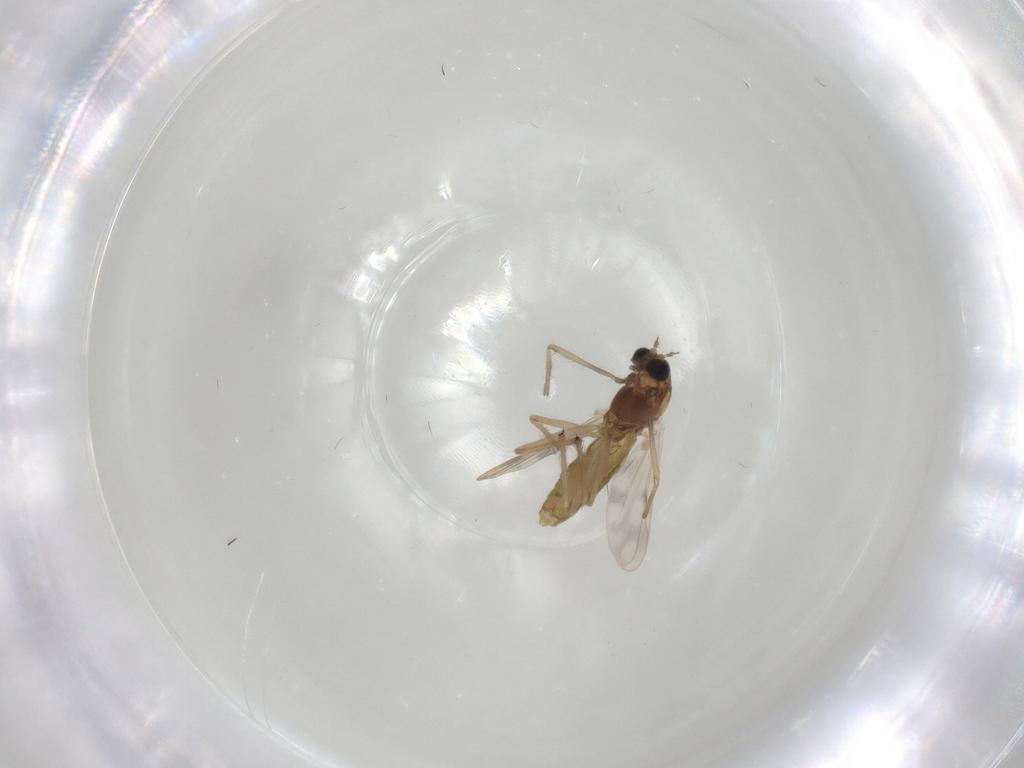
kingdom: Animalia
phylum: Arthropoda
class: Insecta
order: Diptera
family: Chironomidae
